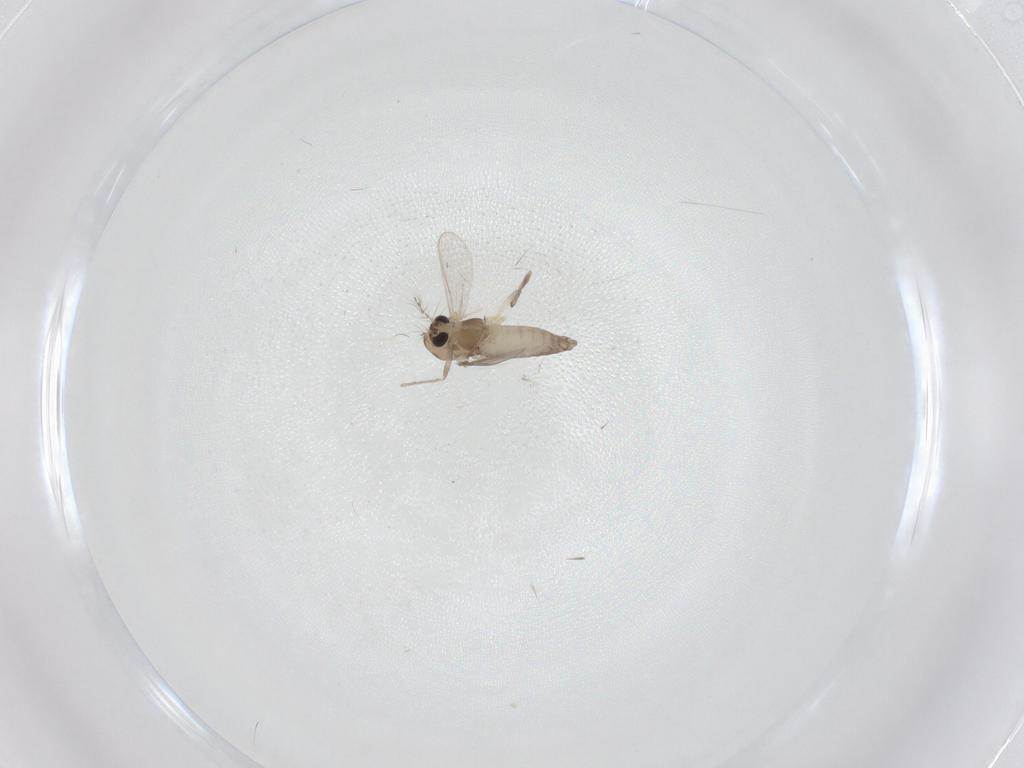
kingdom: Animalia
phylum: Arthropoda
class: Insecta
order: Diptera
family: Chironomidae
